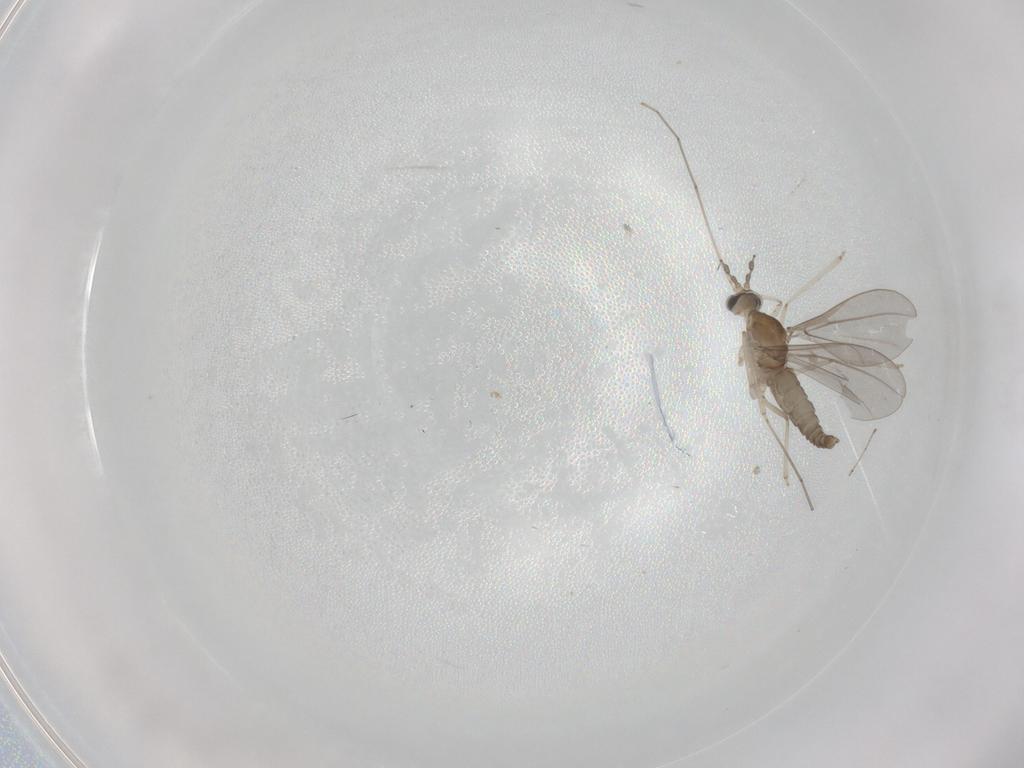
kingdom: Animalia
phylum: Arthropoda
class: Insecta
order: Diptera
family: Cecidomyiidae
